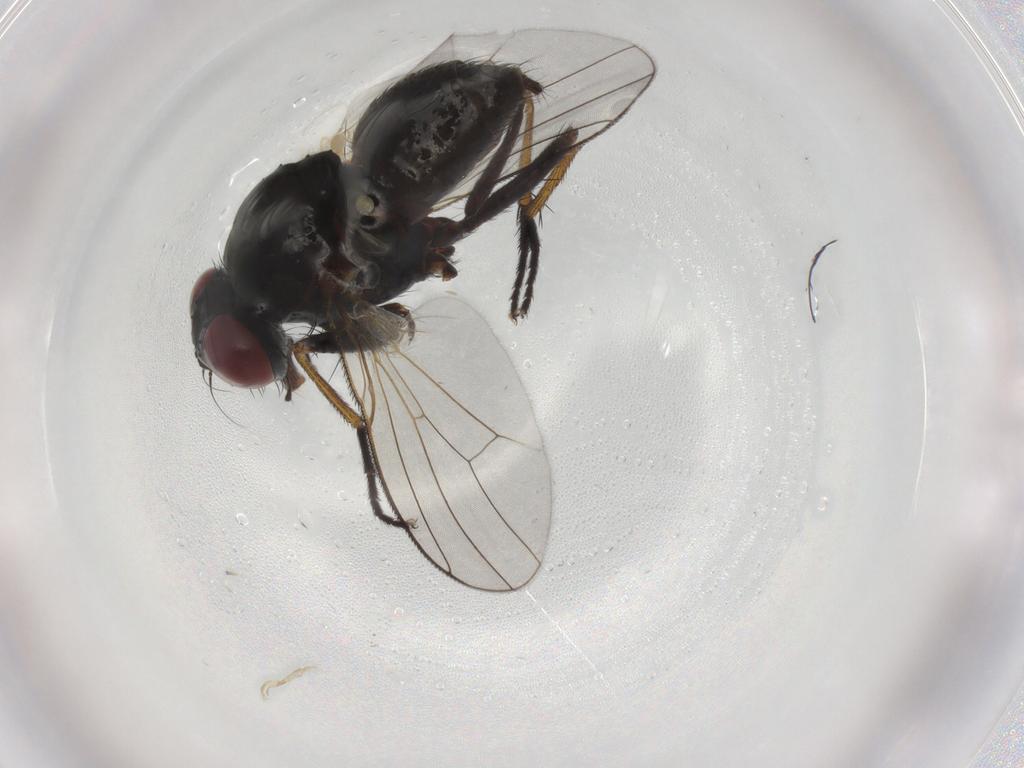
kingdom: Animalia
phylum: Arthropoda
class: Insecta
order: Diptera
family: Muscidae
